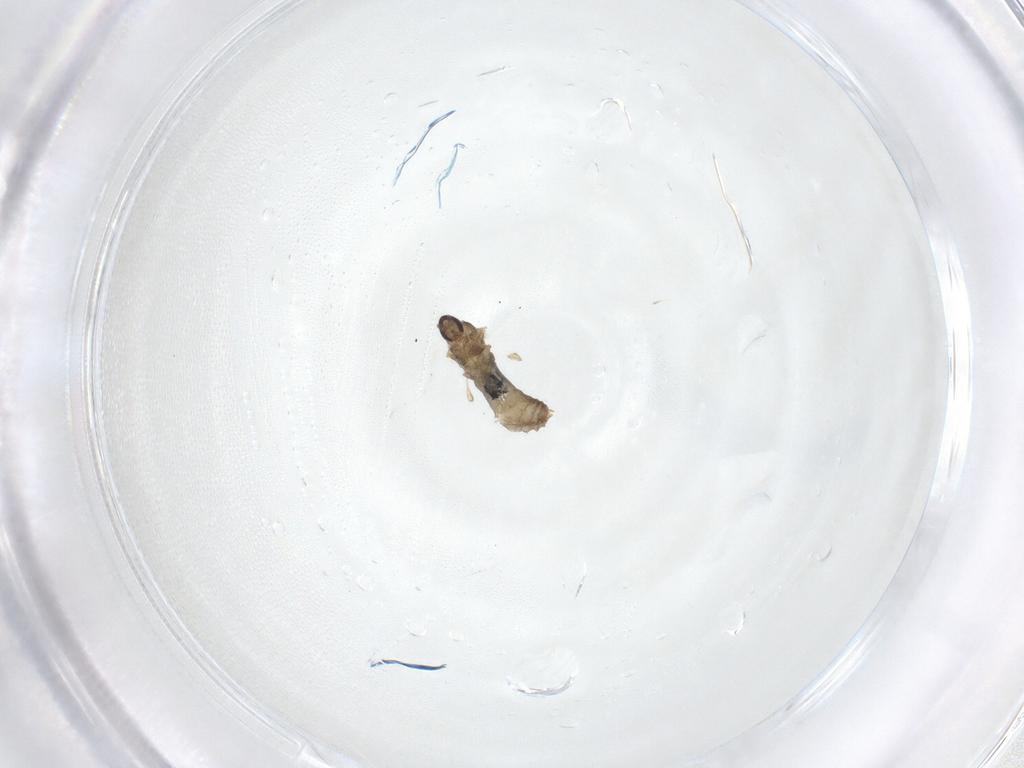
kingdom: Animalia
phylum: Arthropoda
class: Insecta
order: Diptera
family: Cecidomyiidae
